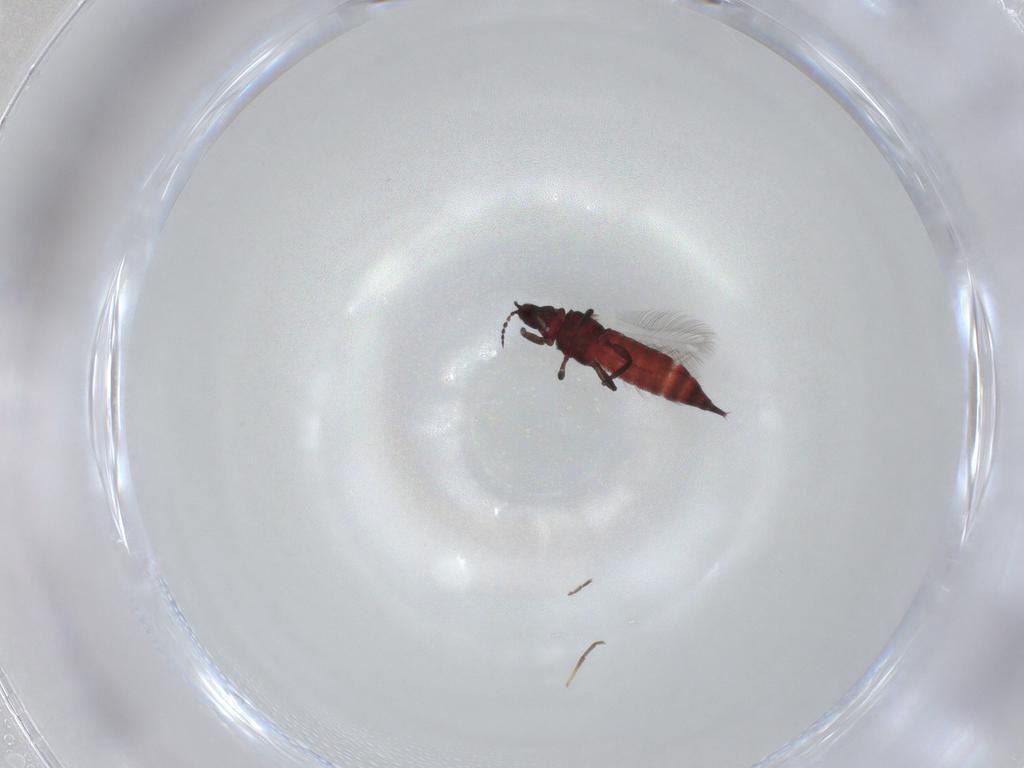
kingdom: Animalia
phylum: Arthropoda
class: Insecta
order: Thysanoptera
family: Phlaeothripidae
